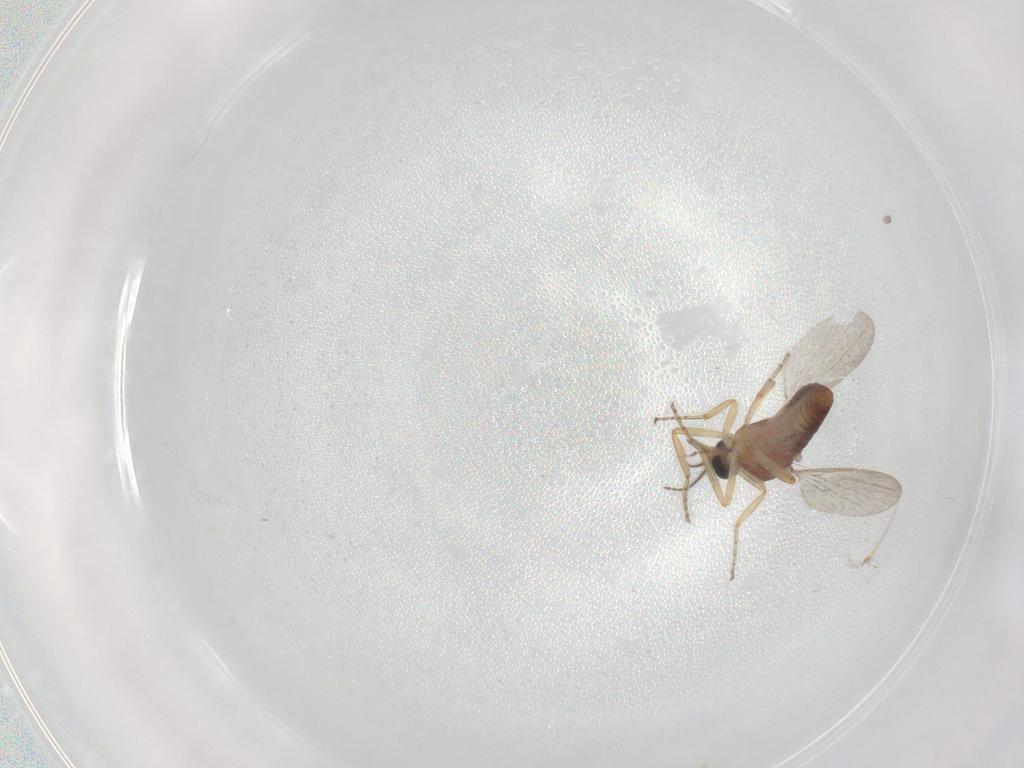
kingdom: Animalia
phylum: Arthropoda
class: Insecta
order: Diptera
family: Ceratopogonidae
